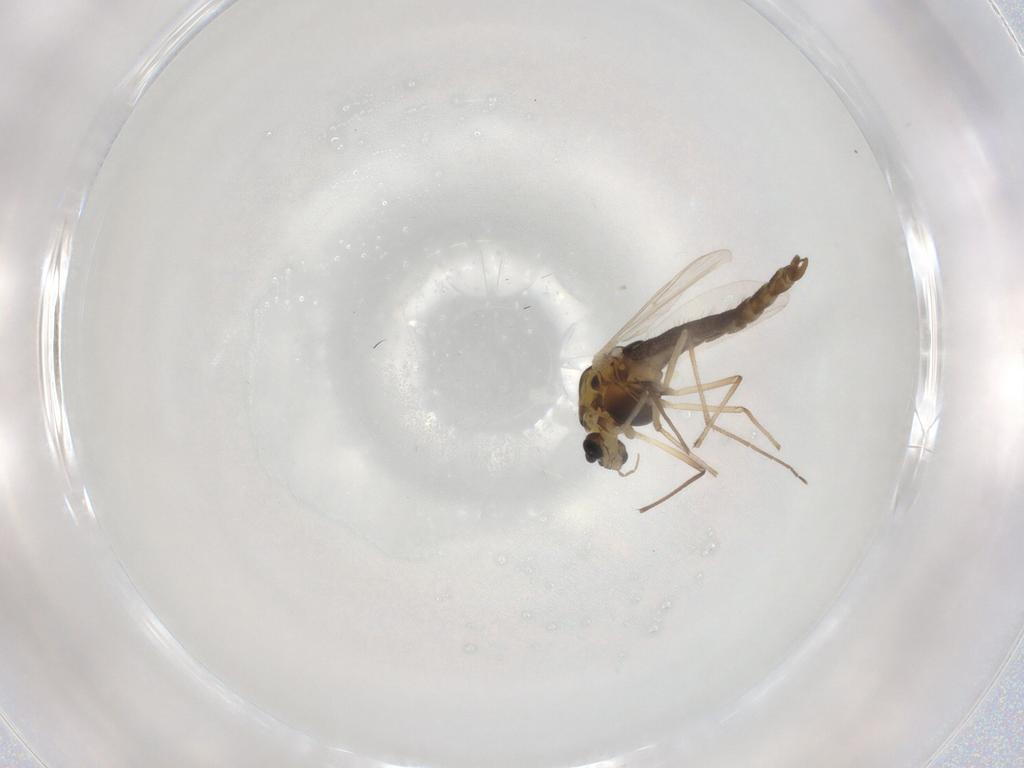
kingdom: Animalia
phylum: Arthropoda
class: Insecta
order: Diptera
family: Chironomidae
